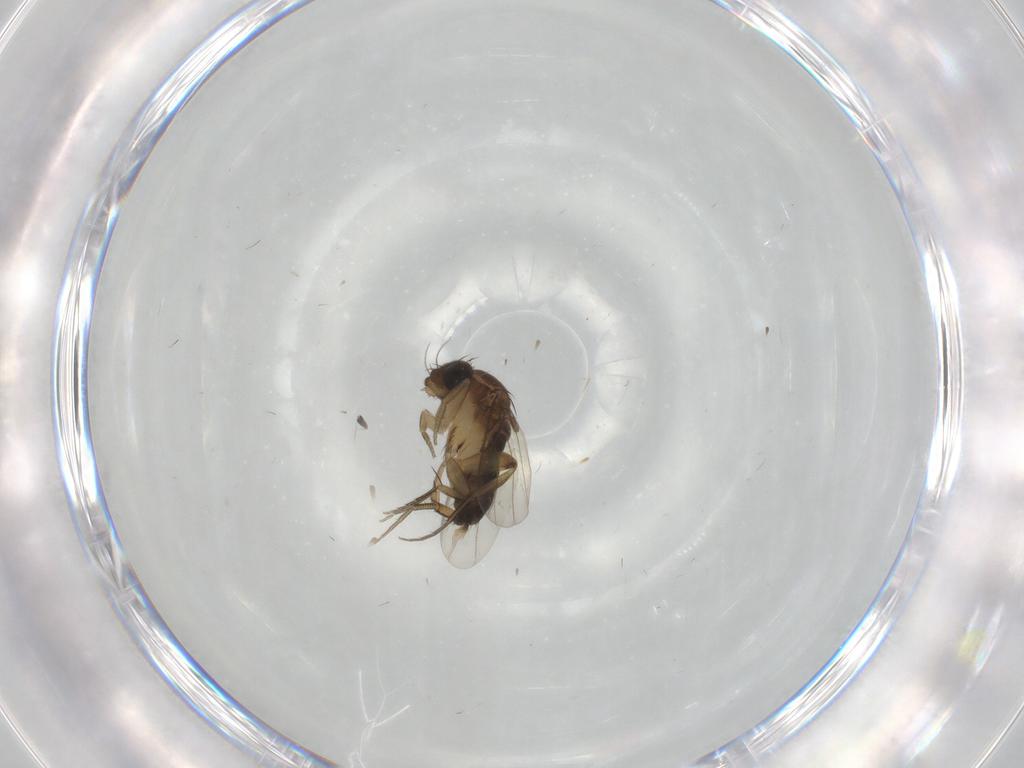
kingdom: Animalia
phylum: Arthropoda
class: Insecta
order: Diptera
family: Phoridae
